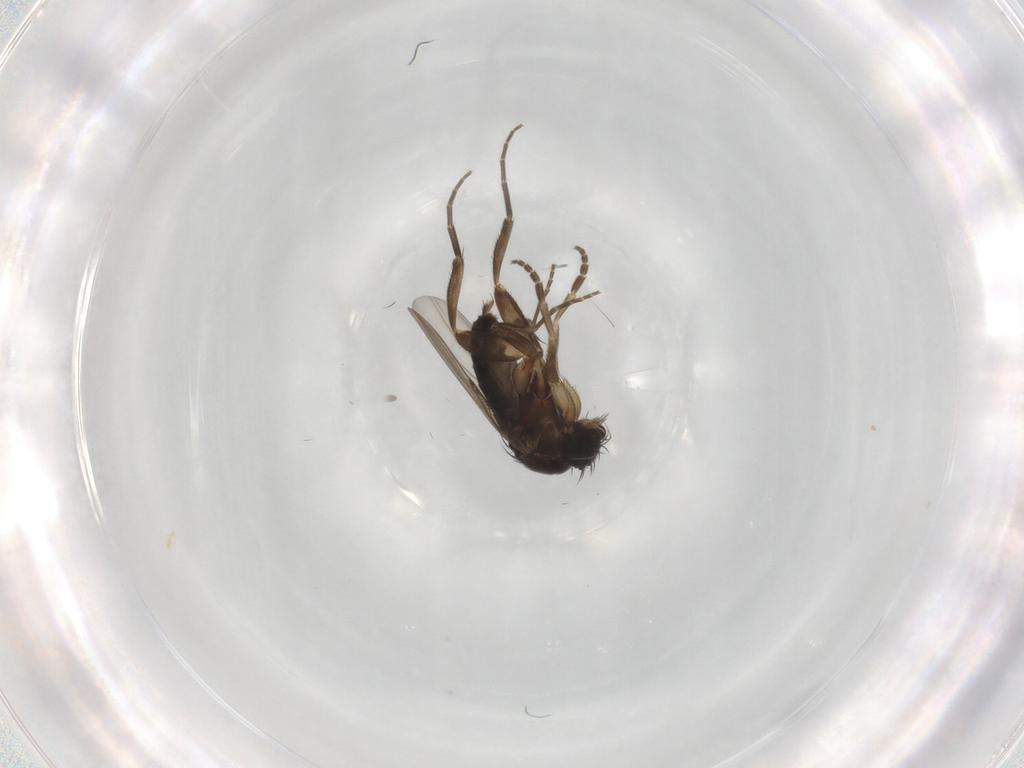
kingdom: Animalia
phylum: Arthropoda
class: Insecta
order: Diptera
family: Phoridae
